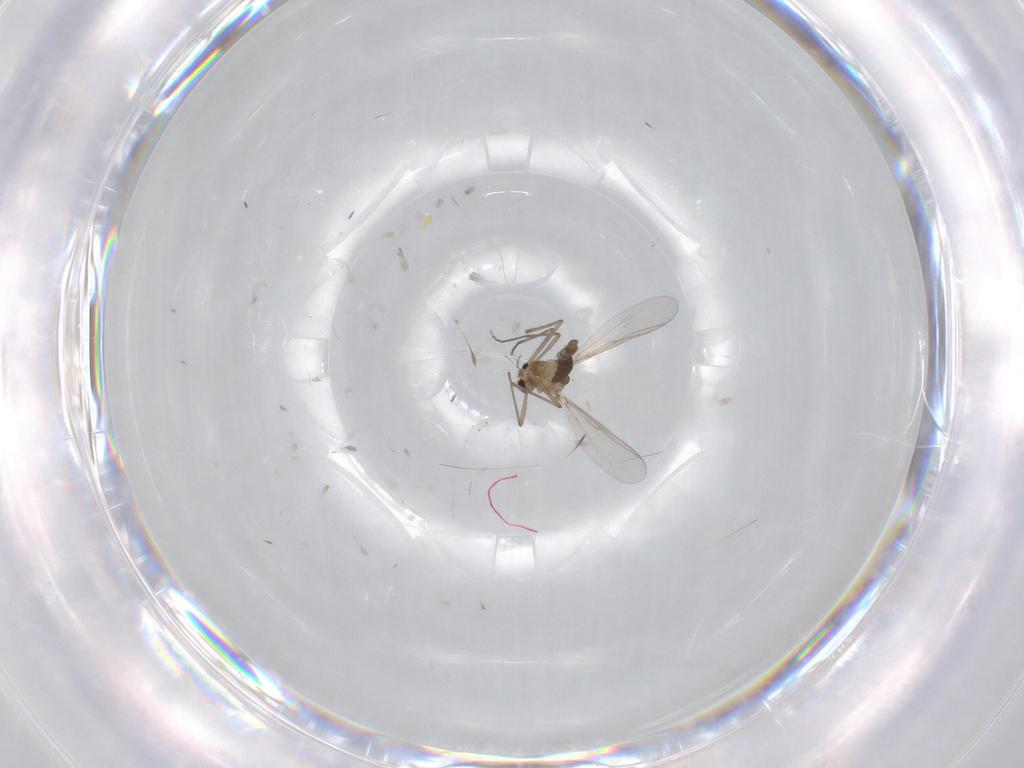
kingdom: Animalia
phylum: Arthropoda
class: Insecta
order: Diptera
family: Chironomidae
